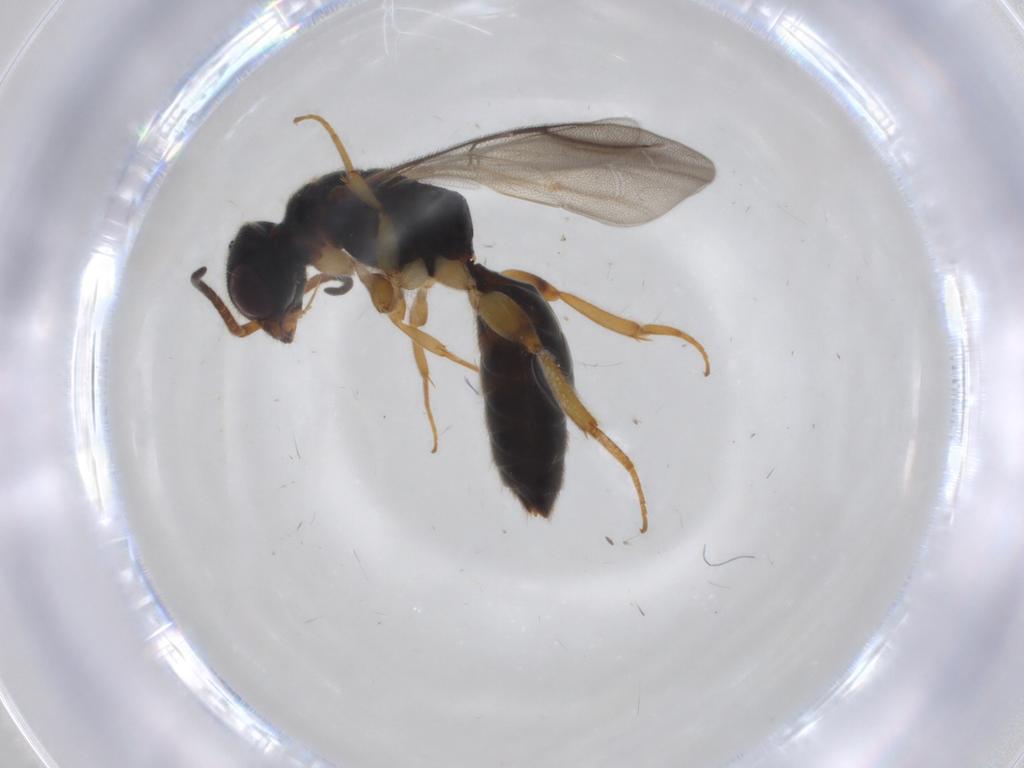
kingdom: Animalia
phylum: Arthropoda
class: Insecta
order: Hymenoptera
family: Bethylidae
